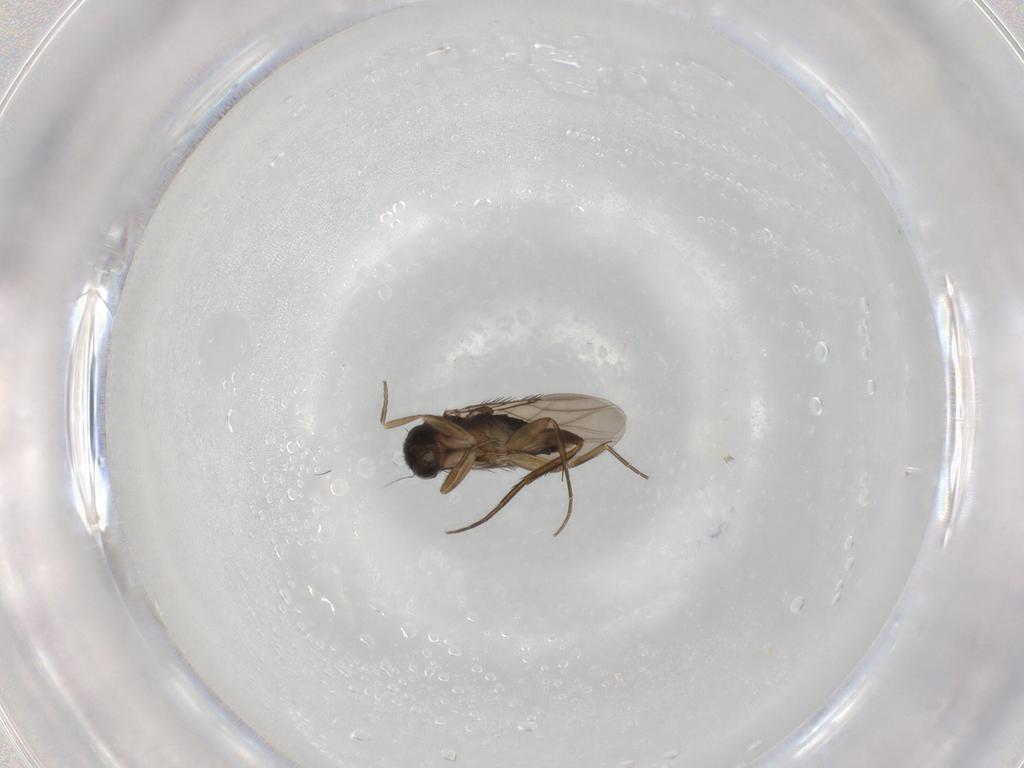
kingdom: Animalia
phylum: Arthropoda
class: Insecta
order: Diptera
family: Phoridae
